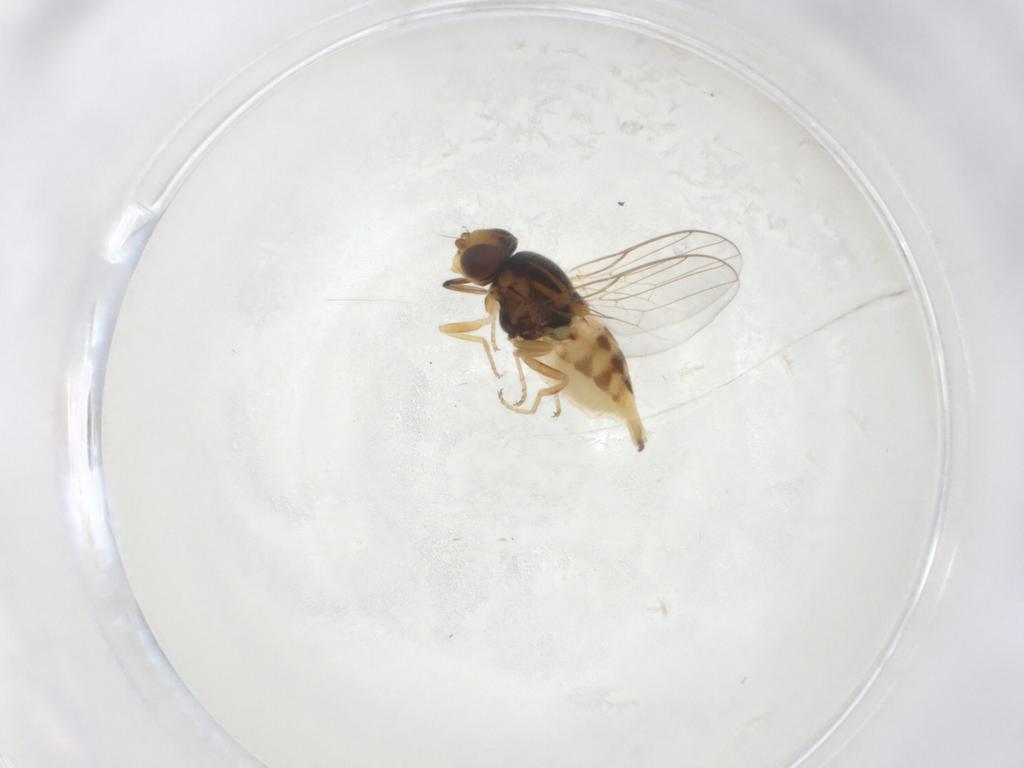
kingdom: Animalia
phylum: Arthropoda
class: Insecta
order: Diptera
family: Chloropidae
